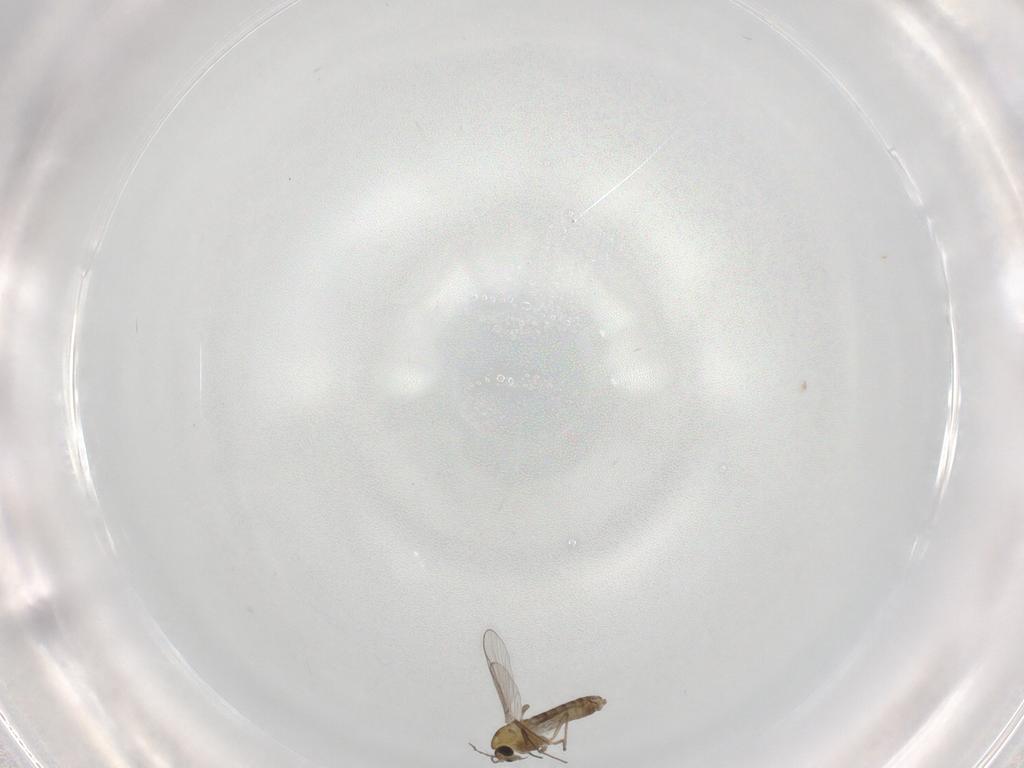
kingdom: Animalia
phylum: Arthropoda
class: Insecta
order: Diptera
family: Chironomidae
